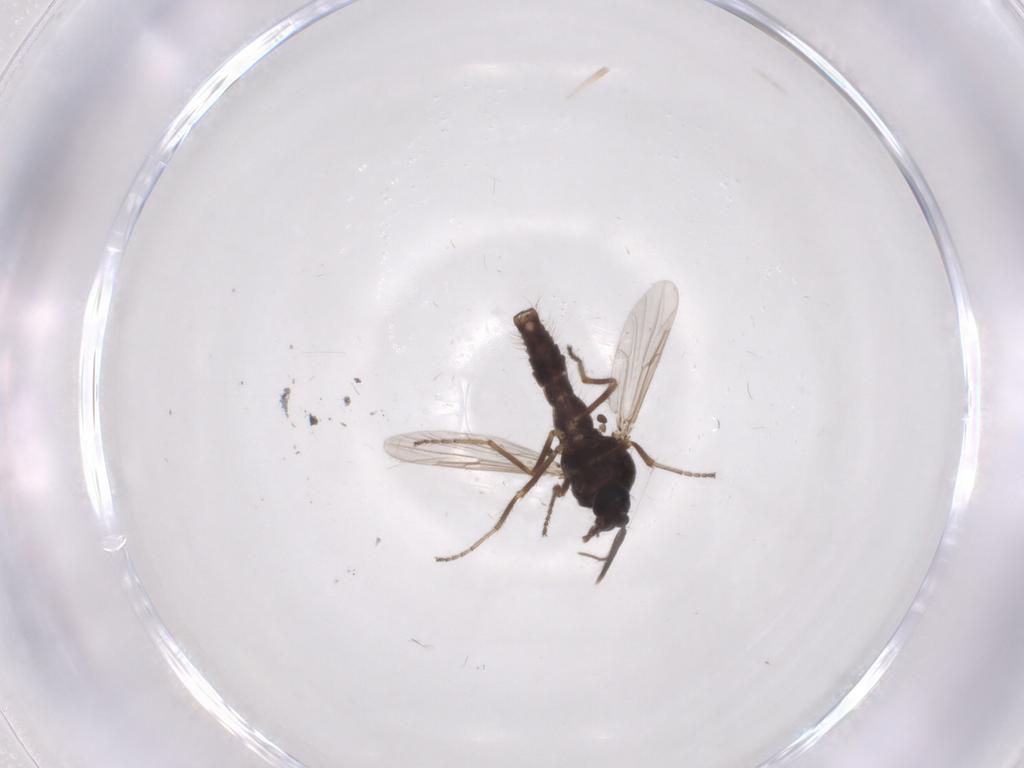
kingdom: Animalia
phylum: Arthropoda
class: Insecta
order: Diptera
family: Ceratopogonidae
